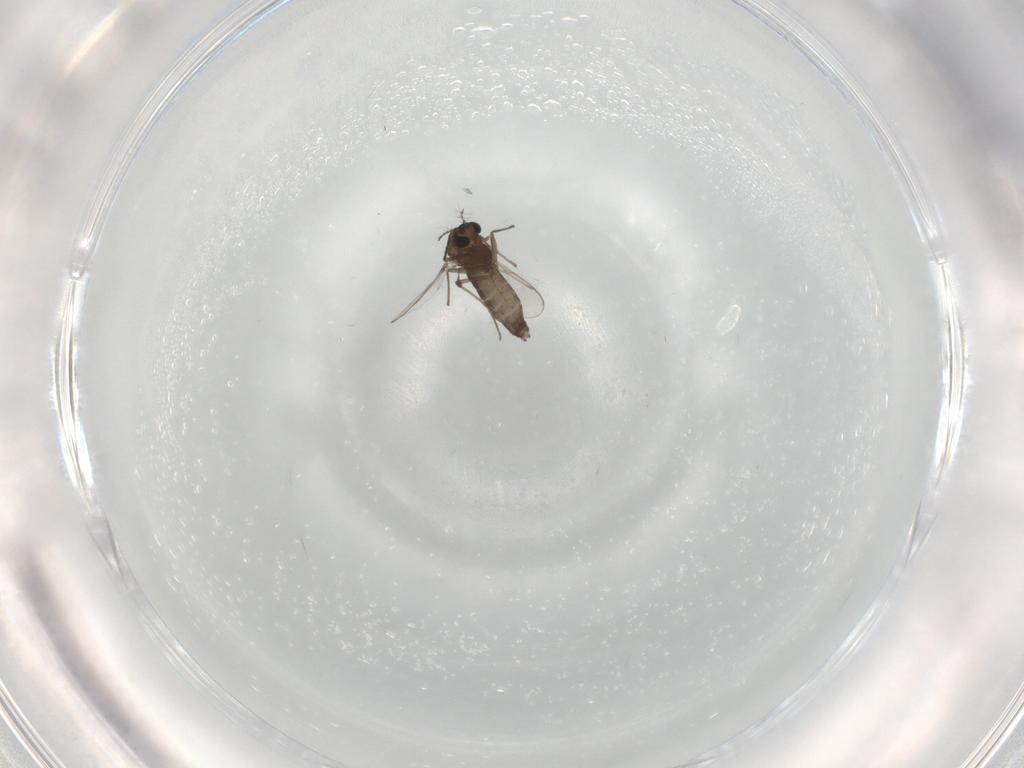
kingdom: Animalia
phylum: Arthropoda
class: Insecta
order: Diptera
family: Chironomidae
